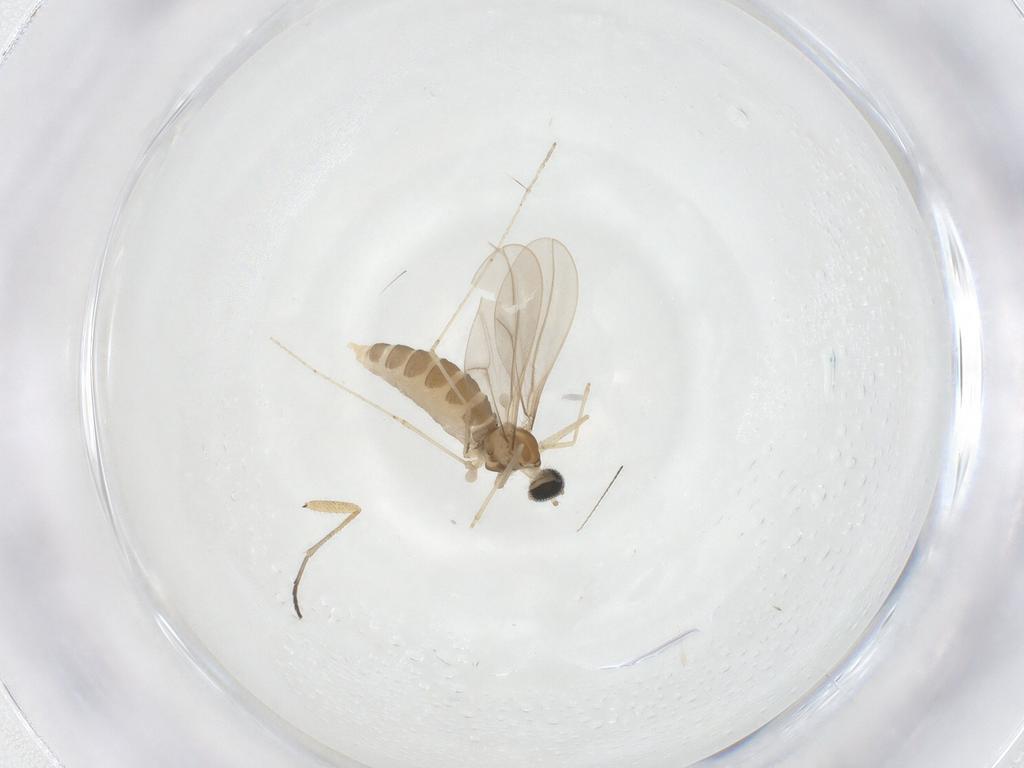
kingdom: Animalia
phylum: Arthropoda
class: Insecta
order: Diptera
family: Cecidomyiidae
